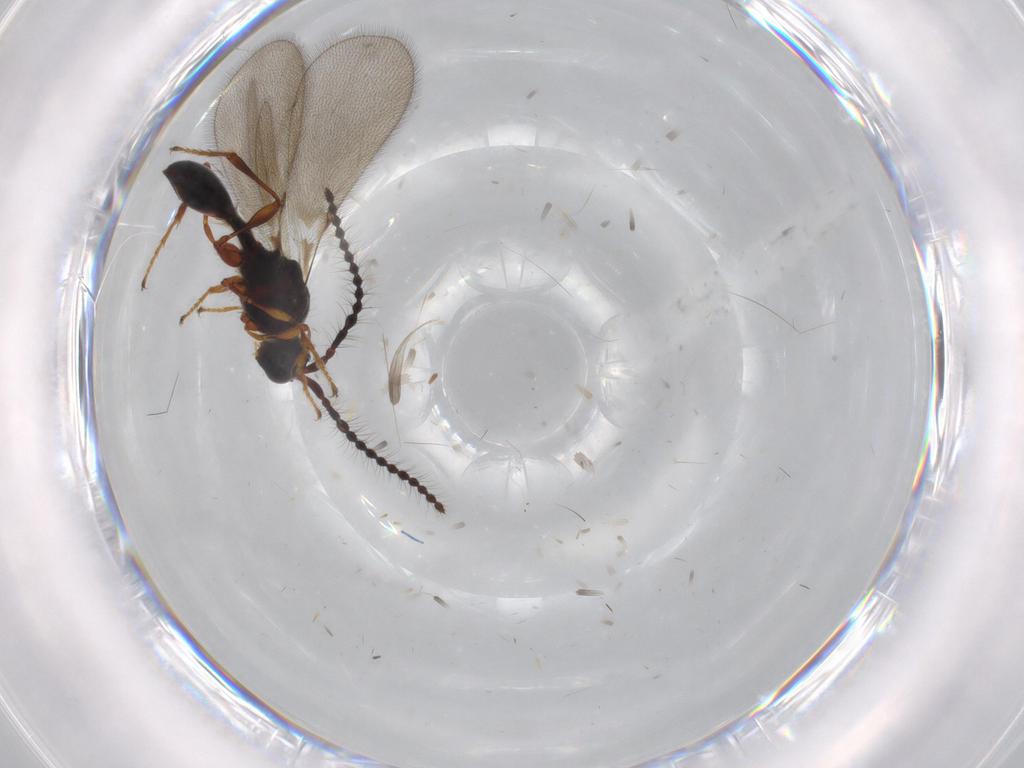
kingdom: Animalia
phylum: Arthropoda
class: Insecta
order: Hymenoptera
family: Diapriidae
